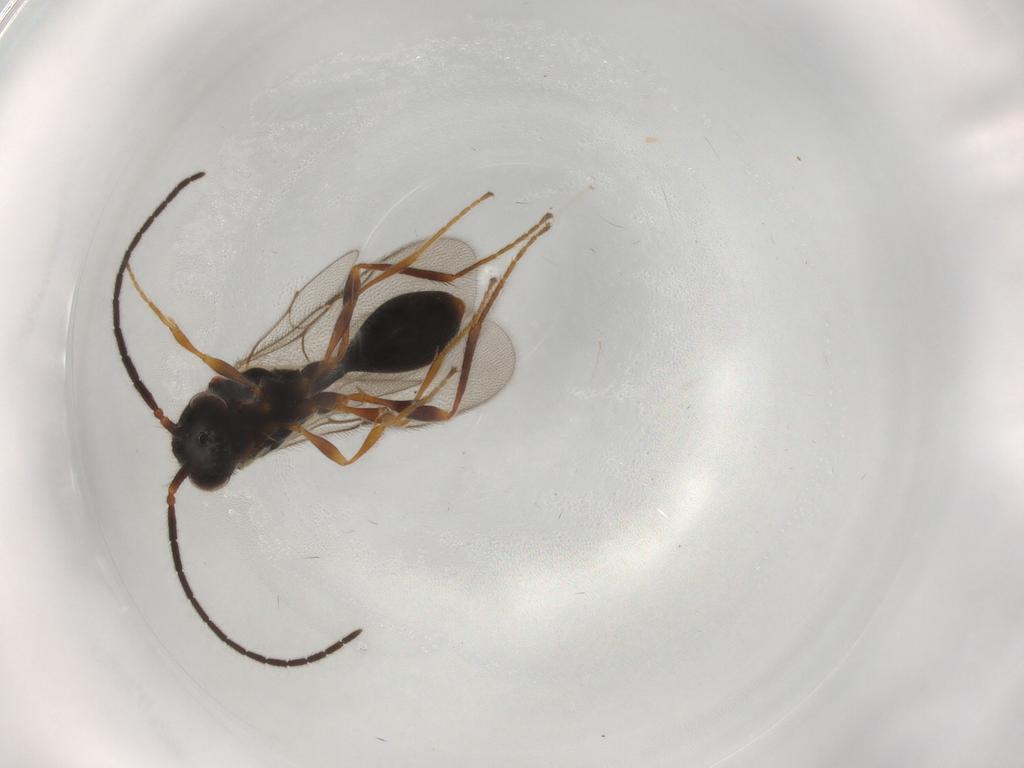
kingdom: Animalia
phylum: Arthropoda
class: Insecta
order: Hymenoptera
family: Diapriidae
